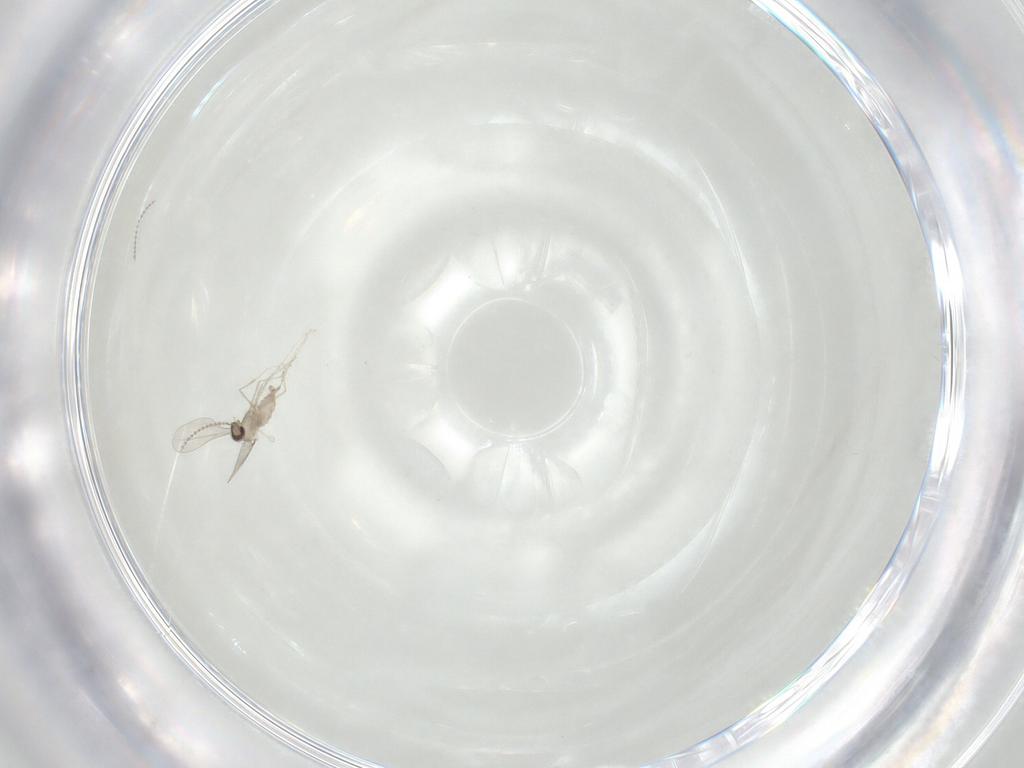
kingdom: Animalia
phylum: Arthropoda
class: Insecta
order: Diptera
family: Cecidomyiidae
